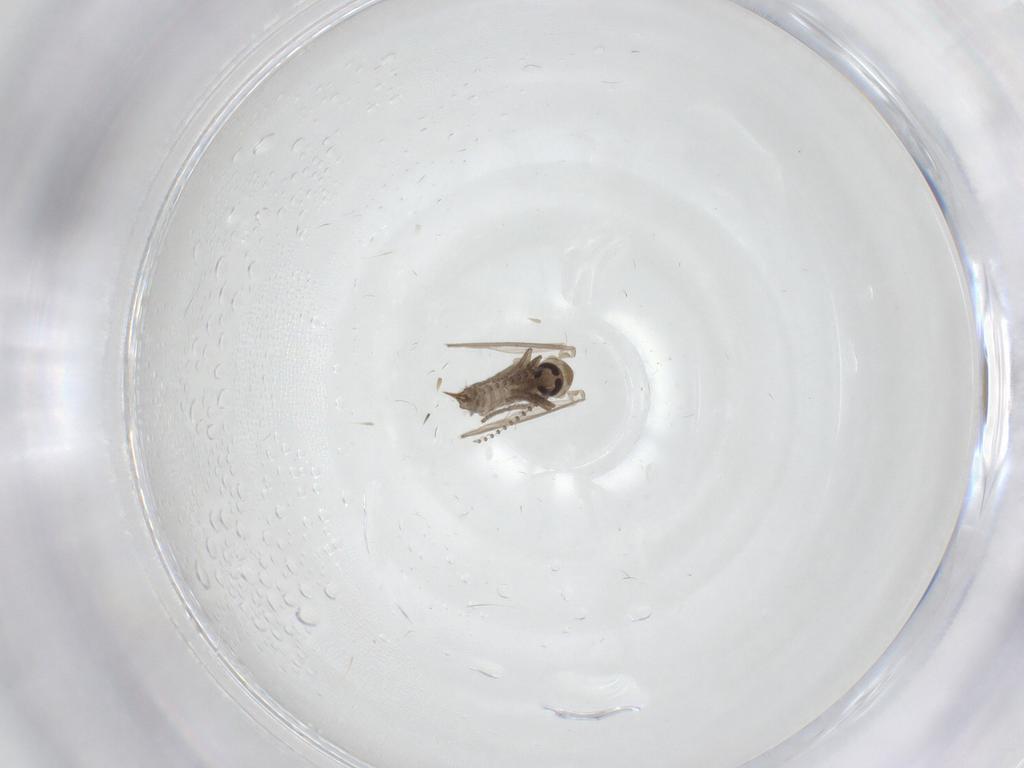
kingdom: Animalia
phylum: Arthropoda
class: Insecta
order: Diptera
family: Psychodidae
